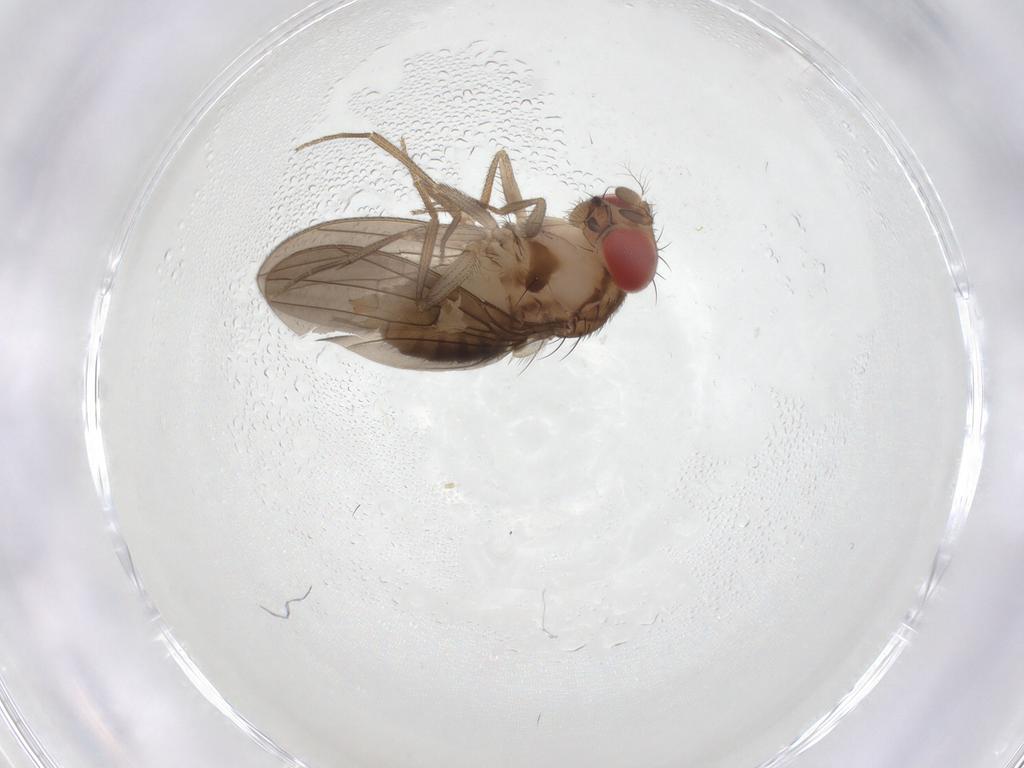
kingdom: Animalia
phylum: Arthropoda
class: Insecta
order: Diptera
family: Drosophilidae
